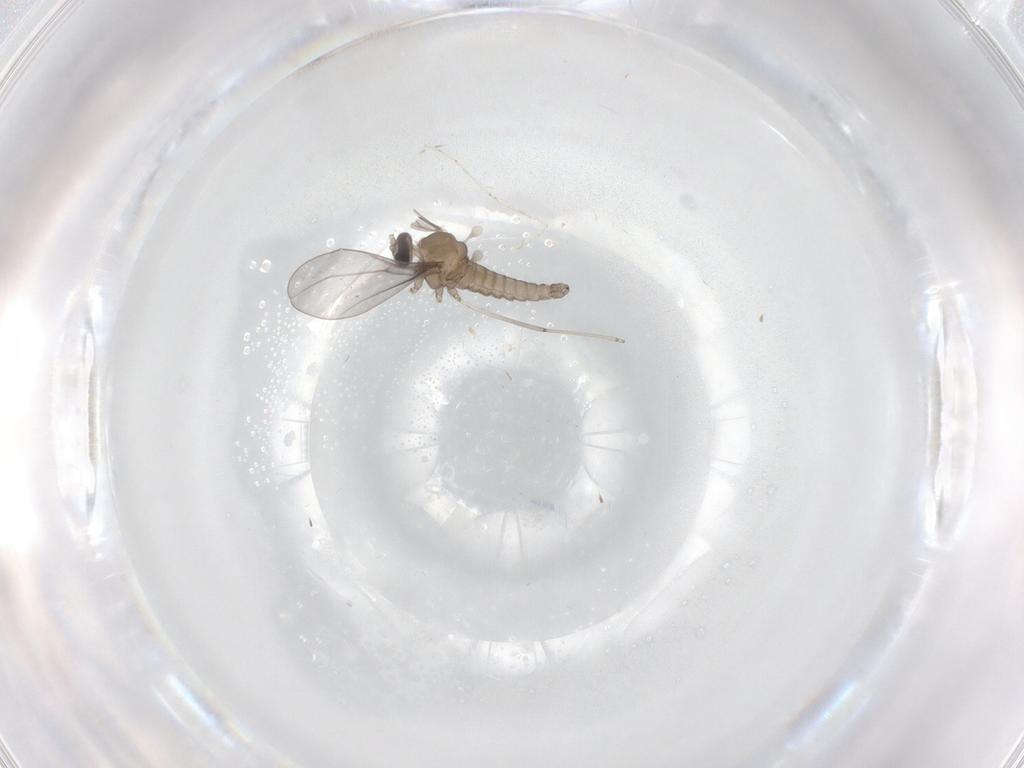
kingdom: Animalia
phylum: Arthropoda
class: Insecta
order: Diptera
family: Cecidomyiidae
